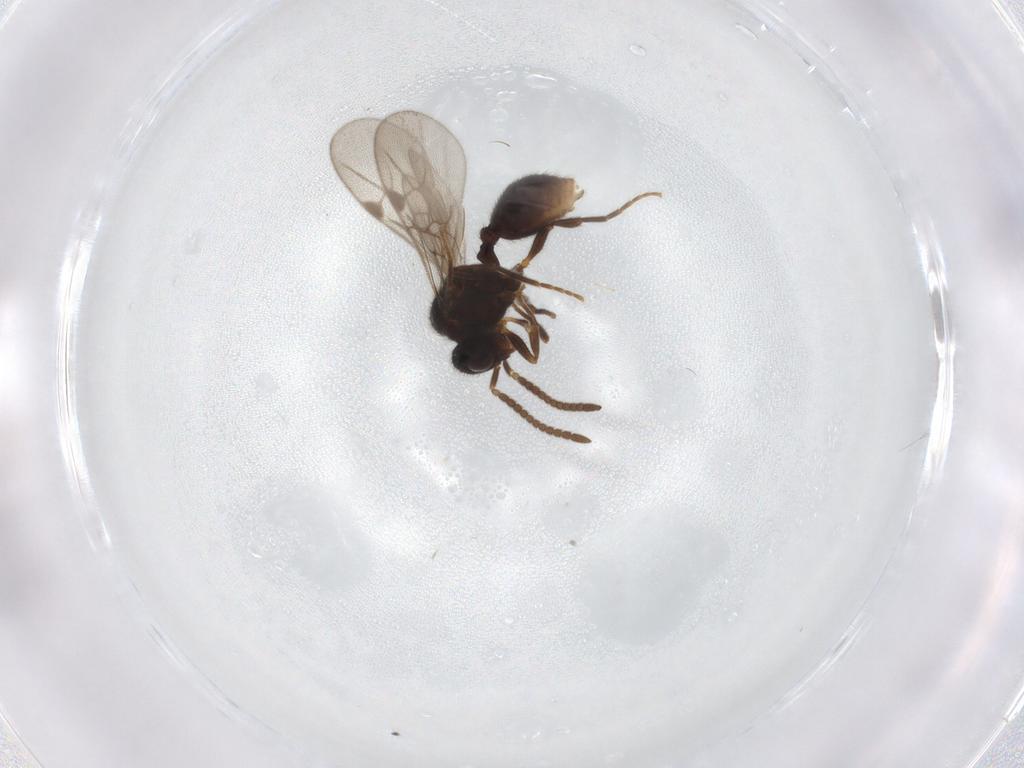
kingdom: Animalia
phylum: Arthropoda
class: Insecta
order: Hymenoptera
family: Formicidae
